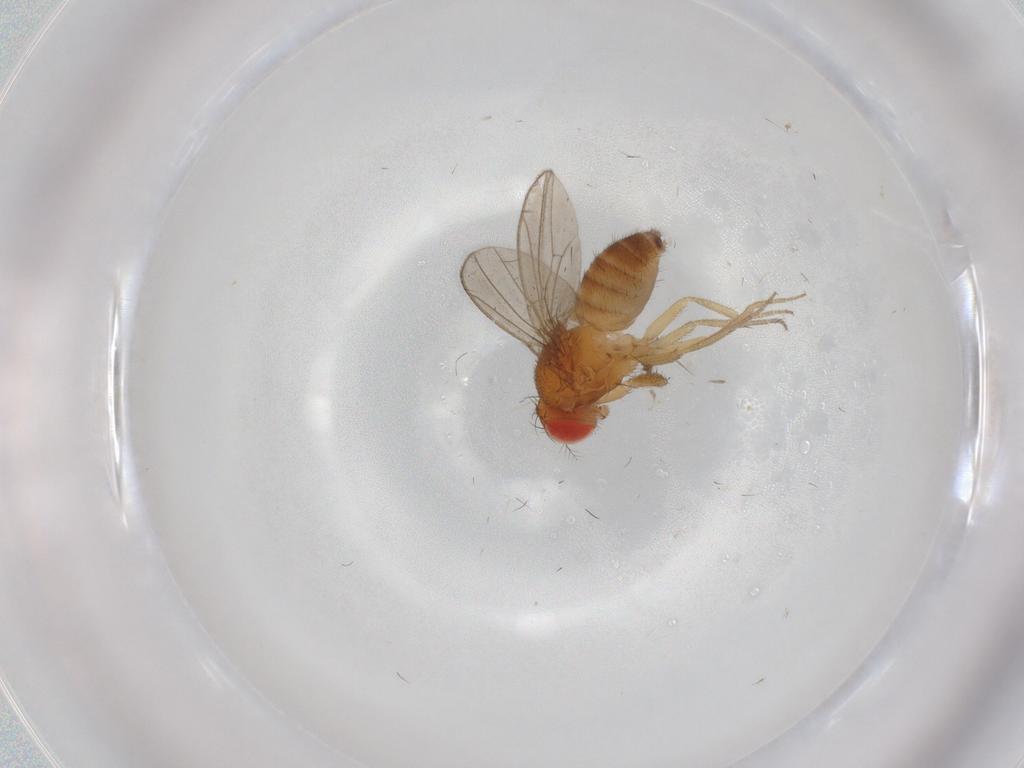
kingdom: Animalia
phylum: Arthropoda
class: Insecta
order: Diptera
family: Drosophilidae
